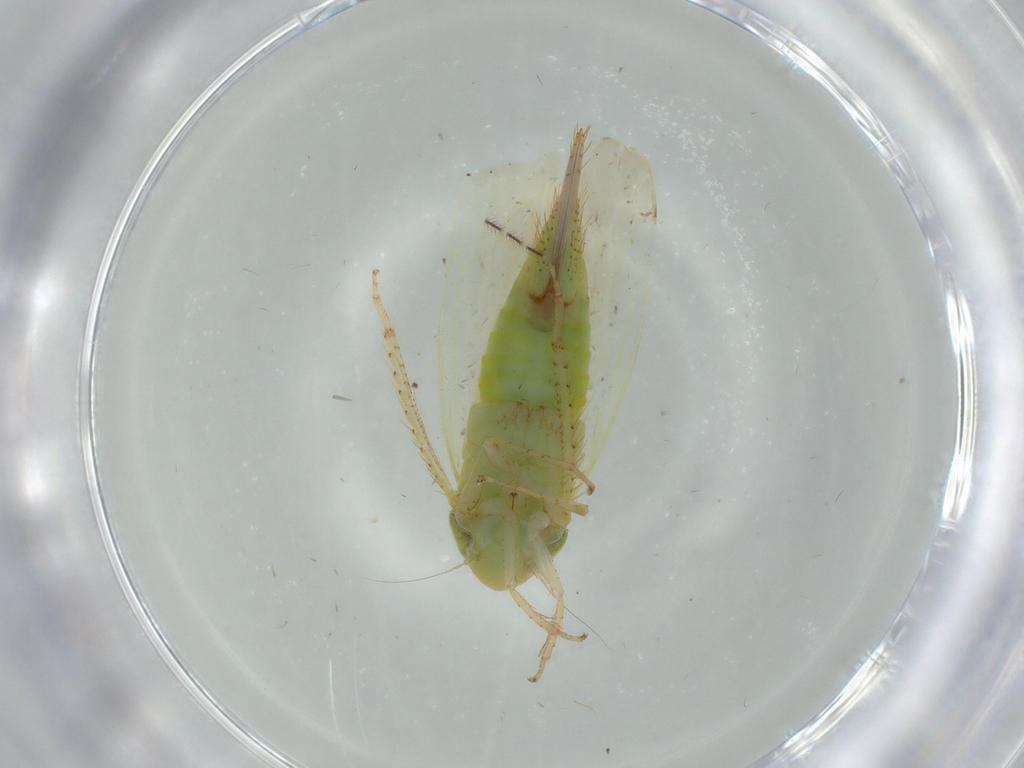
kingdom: Animalia
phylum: Arthropoda
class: Insecta
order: Hemiptera
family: Cicadellidae
